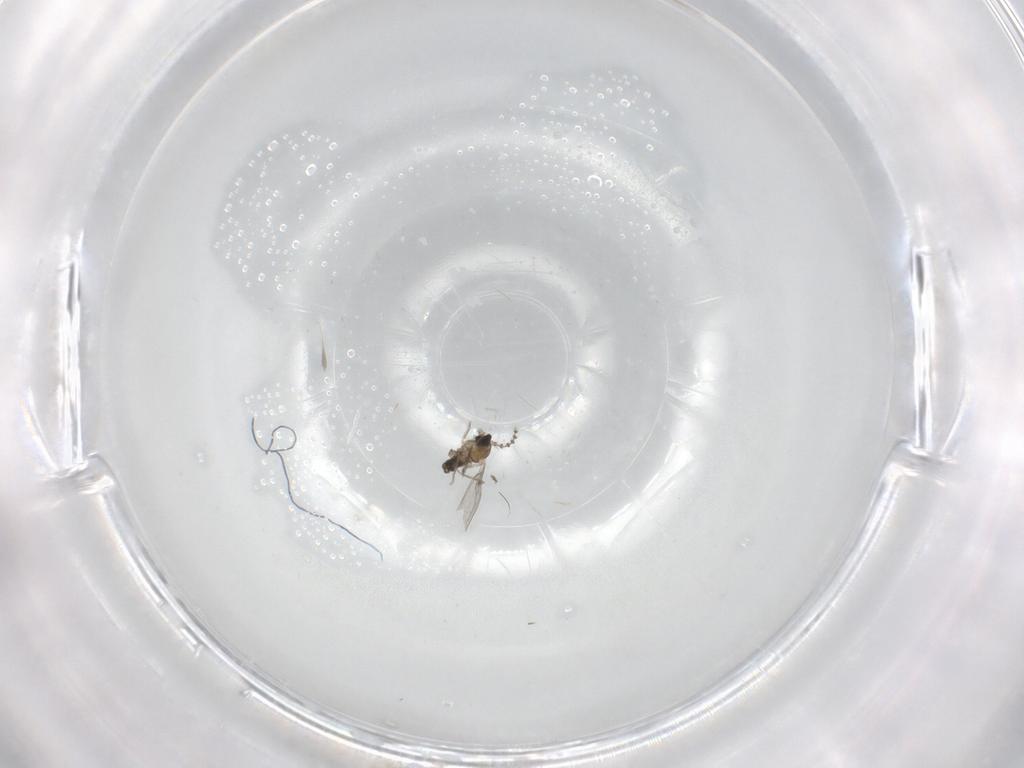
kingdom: Animalia
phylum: Arthropoda
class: Insecta
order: Diptera
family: Cecidomyiidae
